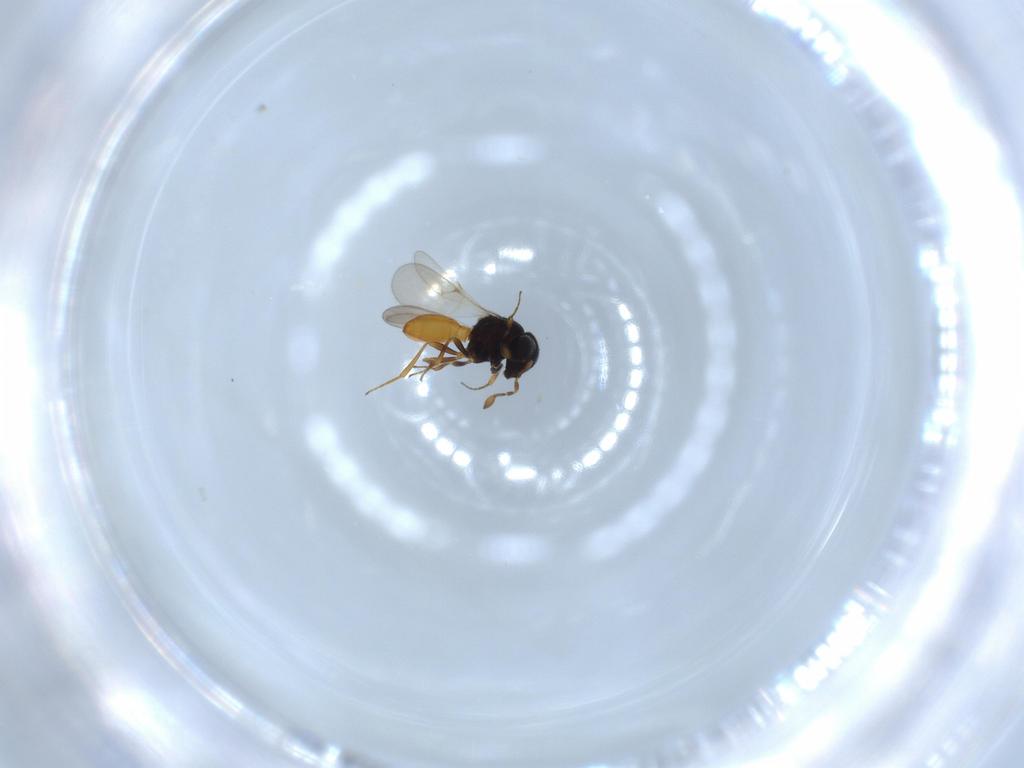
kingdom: Animalia
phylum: Arthropoda
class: Insecta
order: Hymenoptera
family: Scelionidae
